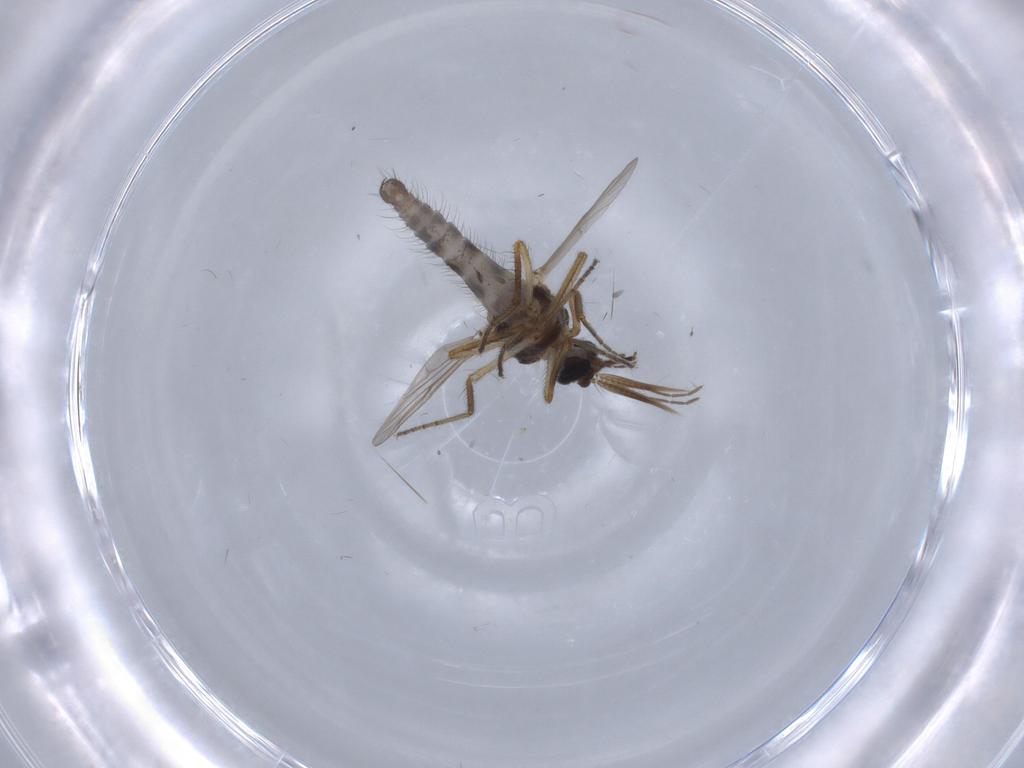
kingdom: Animalia
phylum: Arthropoda
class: Insecta
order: Diptera
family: Ceratopogonidae
